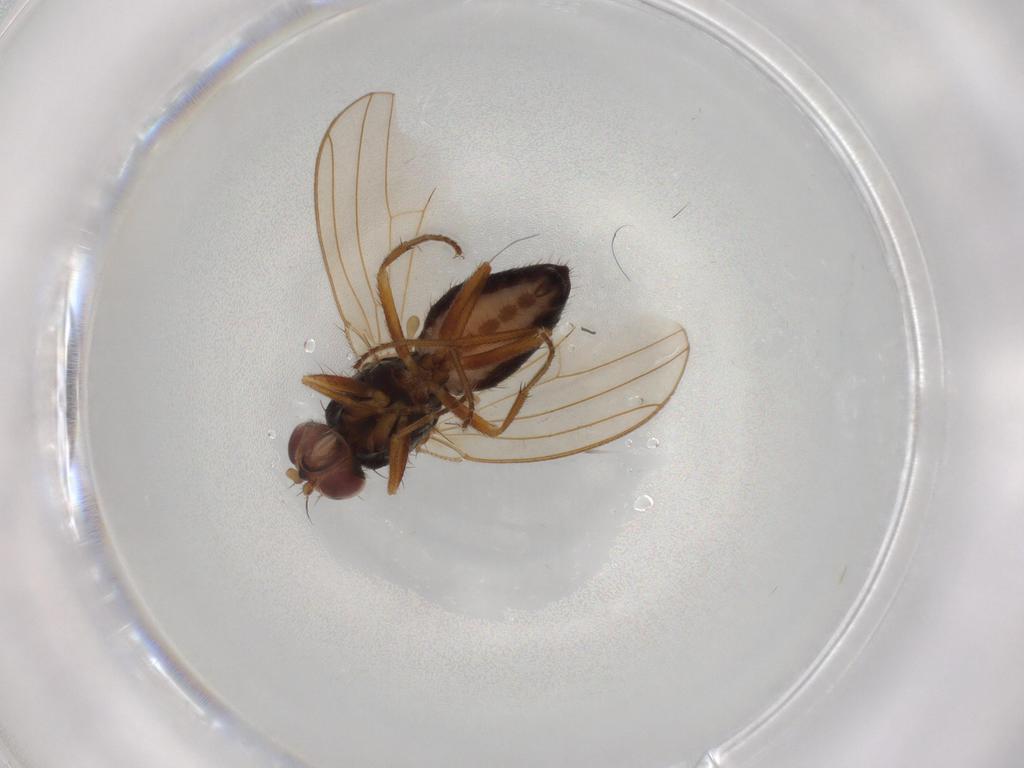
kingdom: Animalia
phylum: Arthropoda
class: Insecta
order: Diptera
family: Drosophilidae
